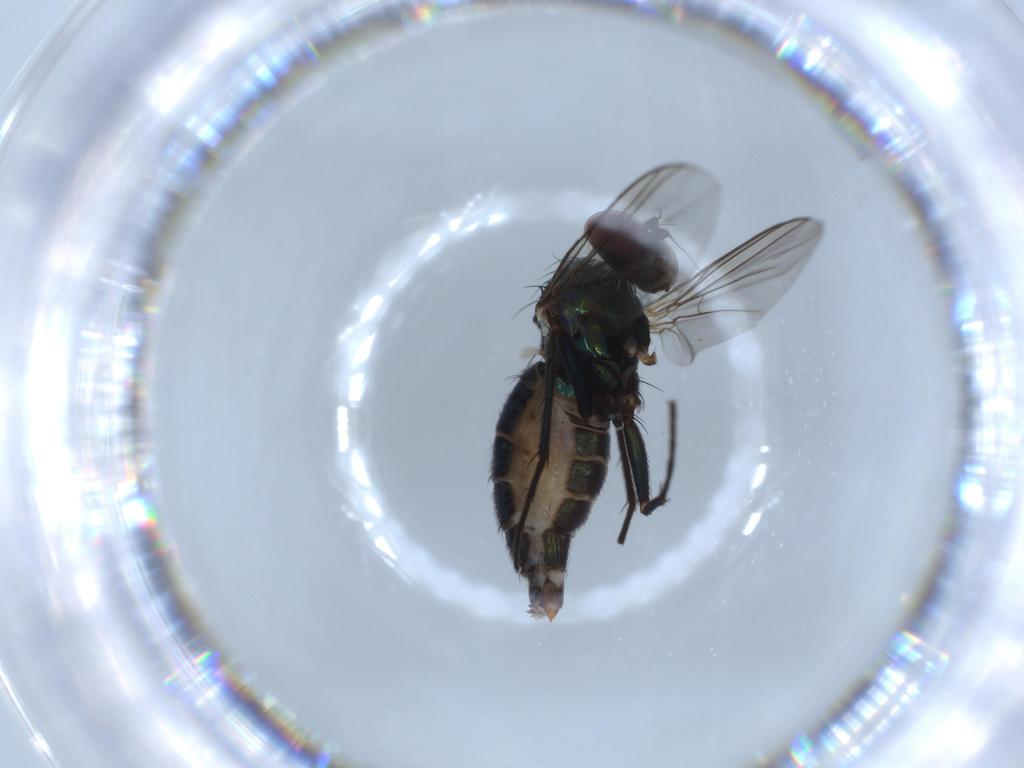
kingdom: Animalia
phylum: Arthropoda
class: Insecta
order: Diptera
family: Dolichopodidae
